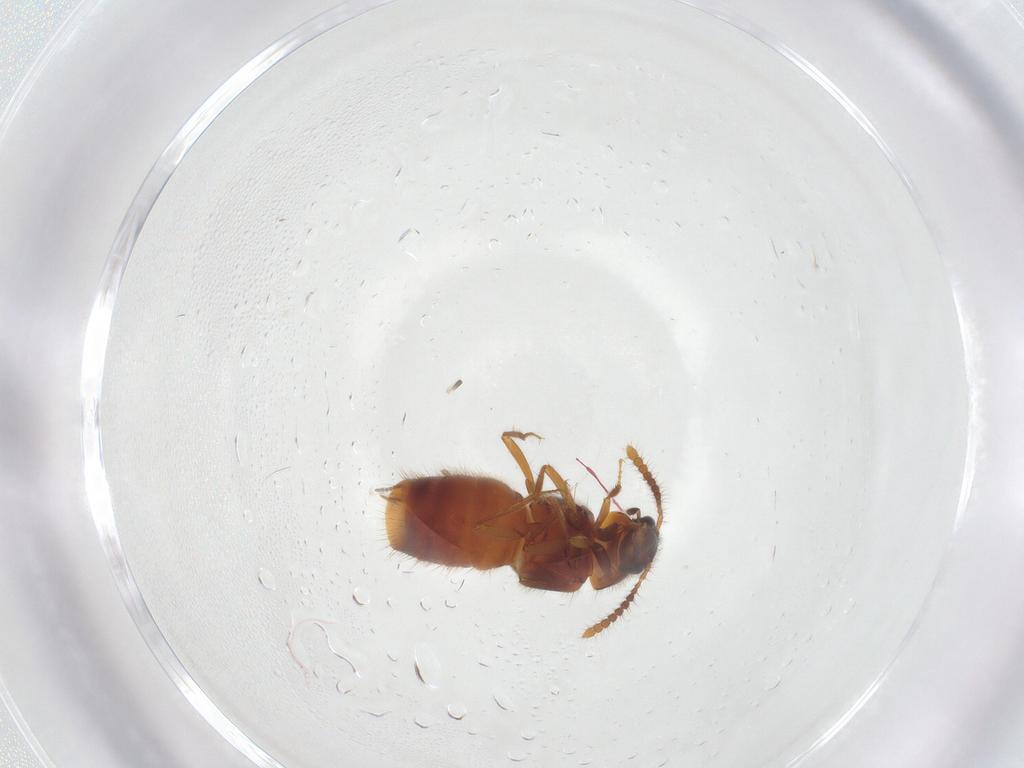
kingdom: Animalia
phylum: Arthropoda
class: Insecta
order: Coleoptera
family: Staphylinidae
